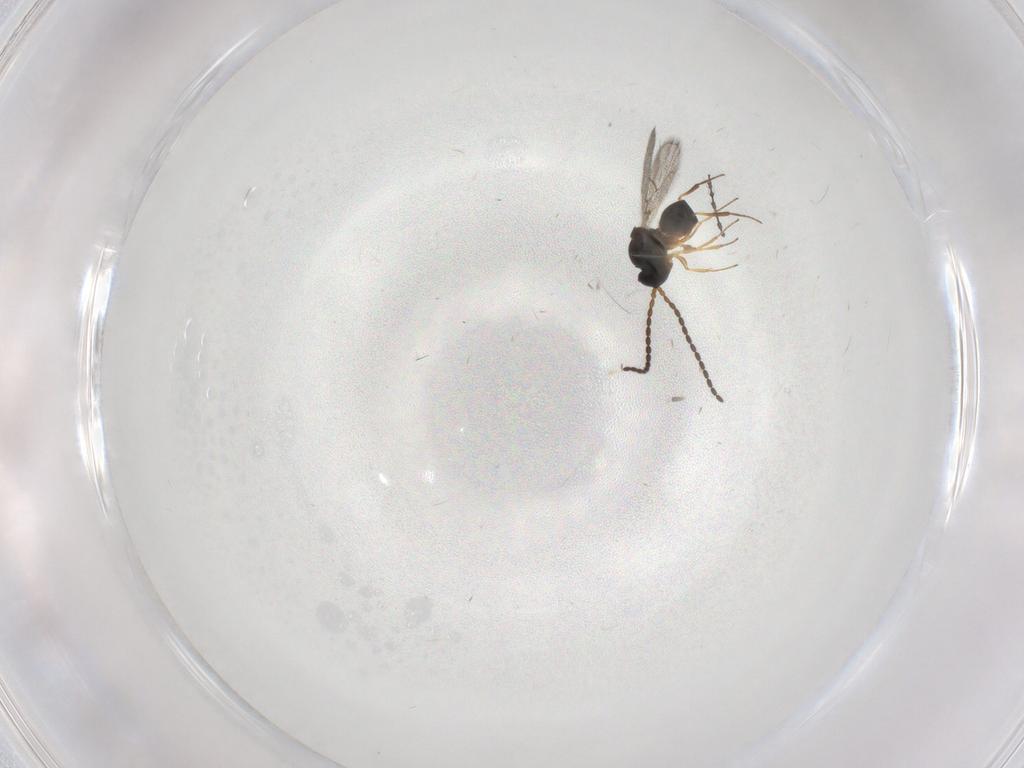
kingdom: Animalia
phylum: Arthropoda
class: Insecta
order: Hymenoptera
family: Figitidae
